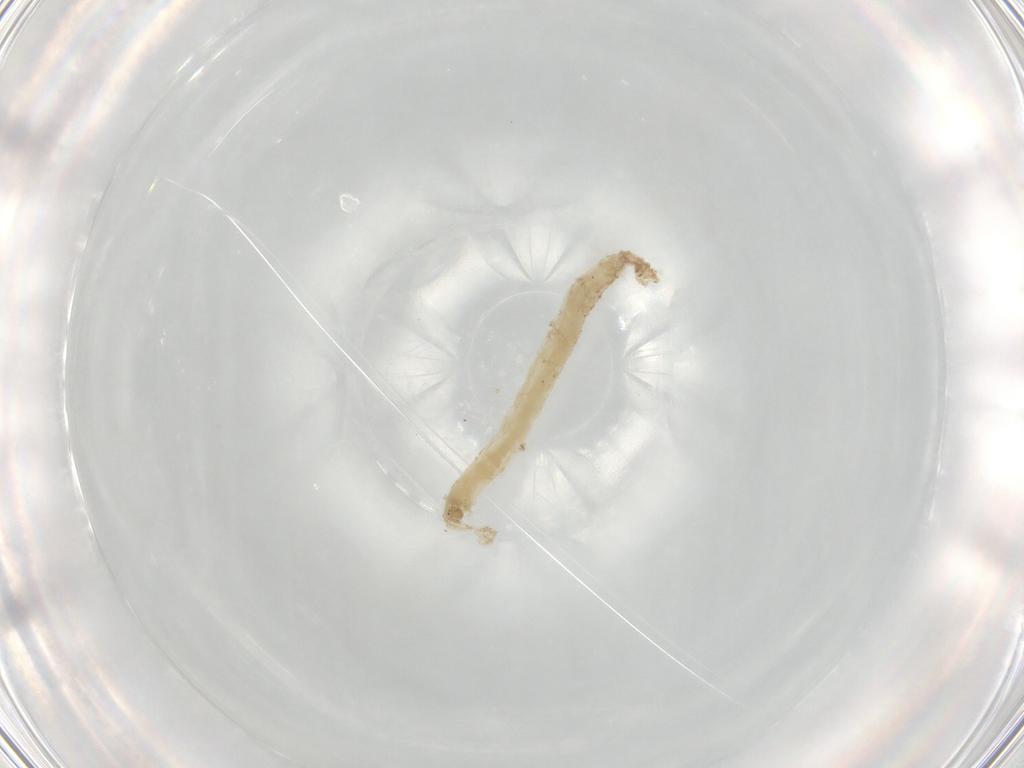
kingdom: Animalia
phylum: Arthropoda
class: Insecta
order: Diptera
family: Chironomidae
